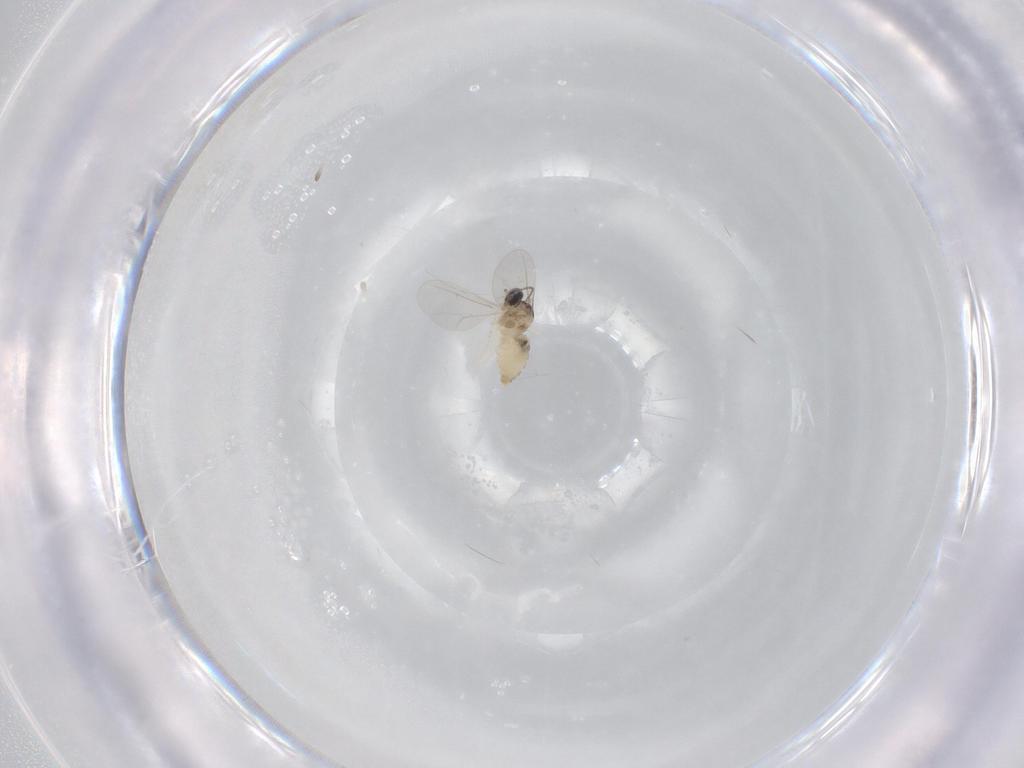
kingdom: Animalia
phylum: Arthropoda
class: Insecta
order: Diptera
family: Cecidomyiidae
